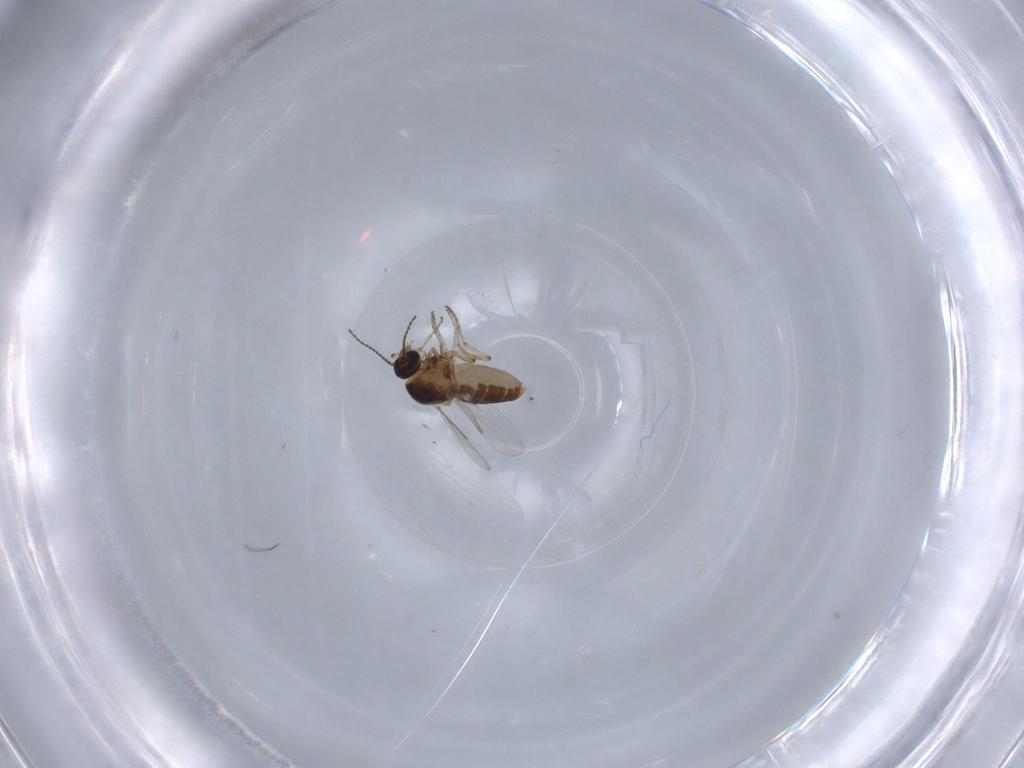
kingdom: Animalia
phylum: Arthropoda
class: Insecta
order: Diptera
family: Ceratopogonidae
